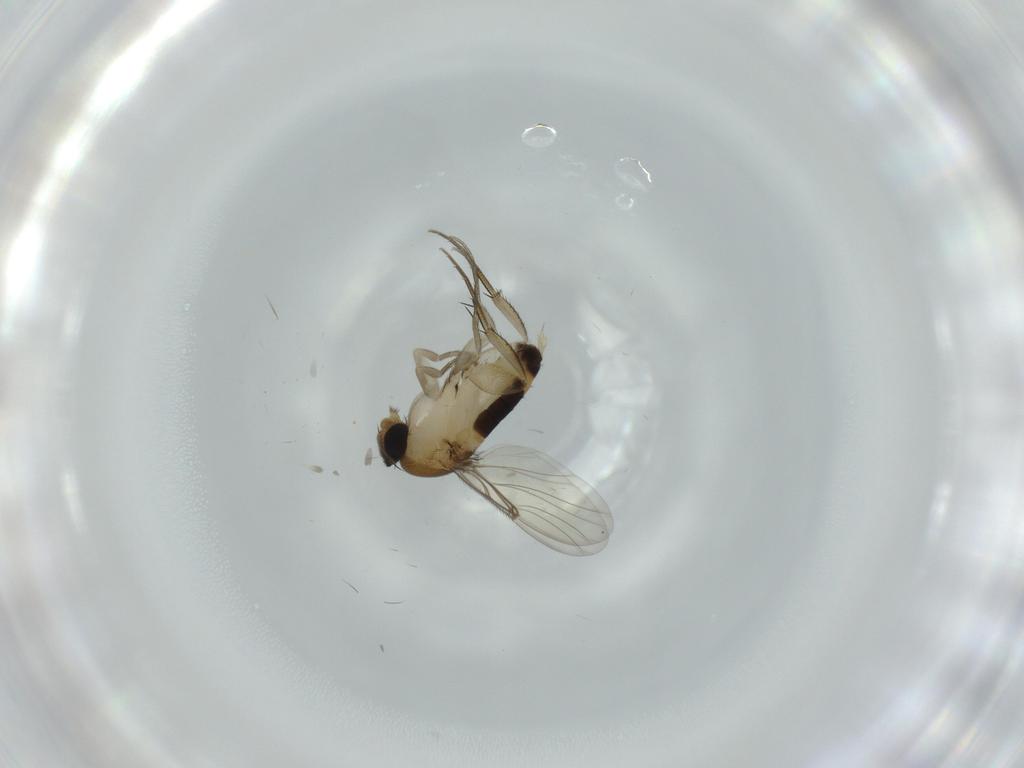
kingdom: Animalia
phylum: Arthropoda
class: Insecta
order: Diptera
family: Phoridae
